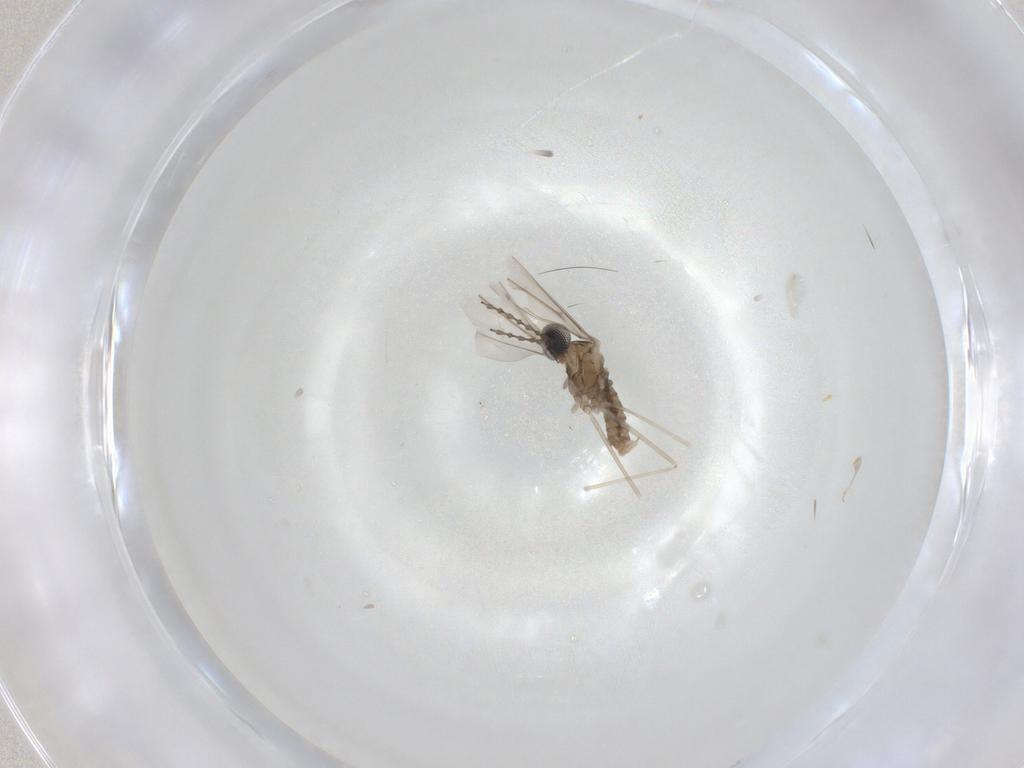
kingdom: Animalia
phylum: Arthropoda
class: Insecta
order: Diptera
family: Cecidomyiidae
